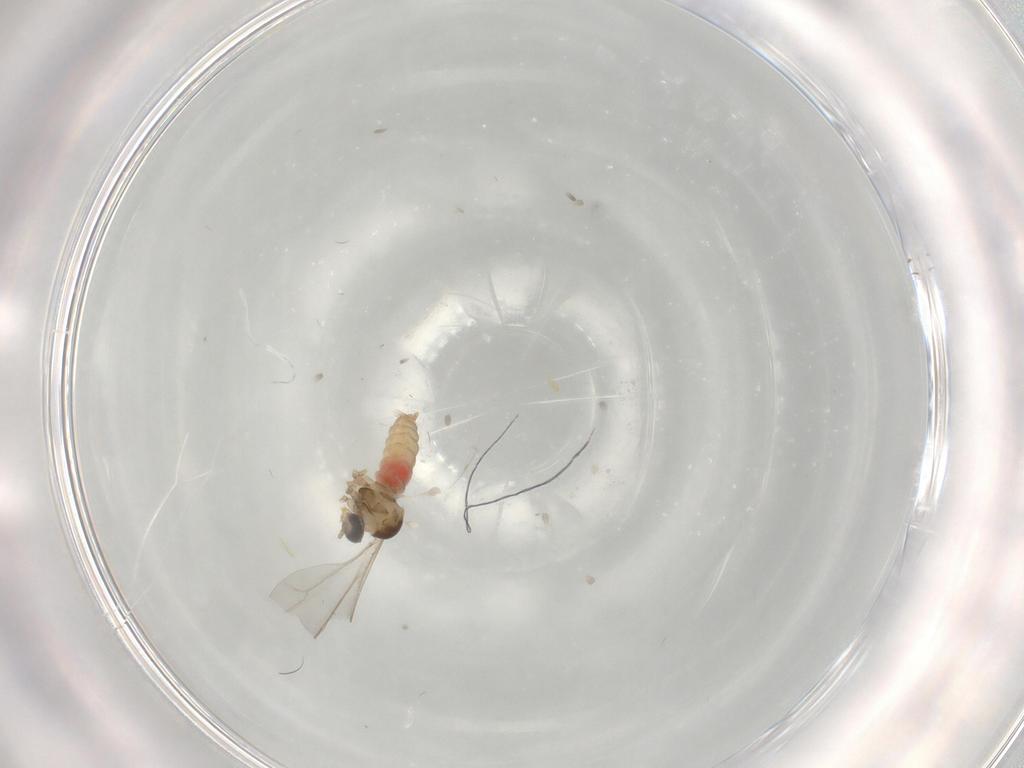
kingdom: Animalia
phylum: Arthropoda
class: Insecta
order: Diptera
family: Cecidomyiidae
